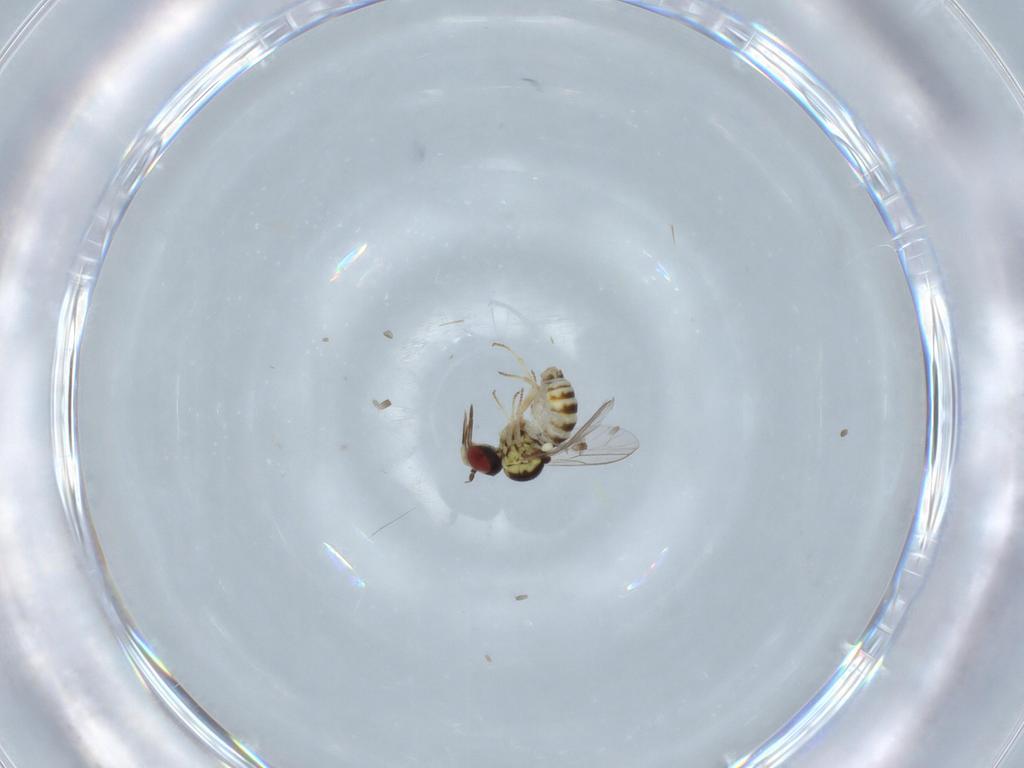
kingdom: Animalia
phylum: Arthropoda
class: Insecta
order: Diptera
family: Bombyliidae
